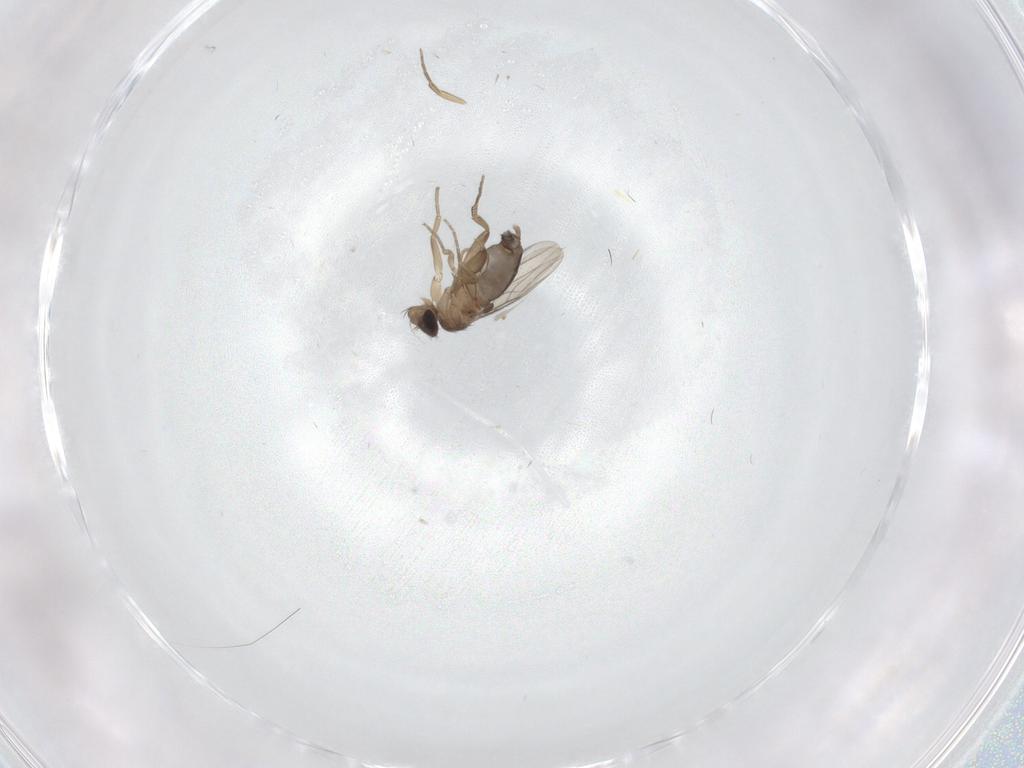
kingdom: Animalia
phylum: Arthropoda
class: Insecta
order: Diptera
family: Phoridae
